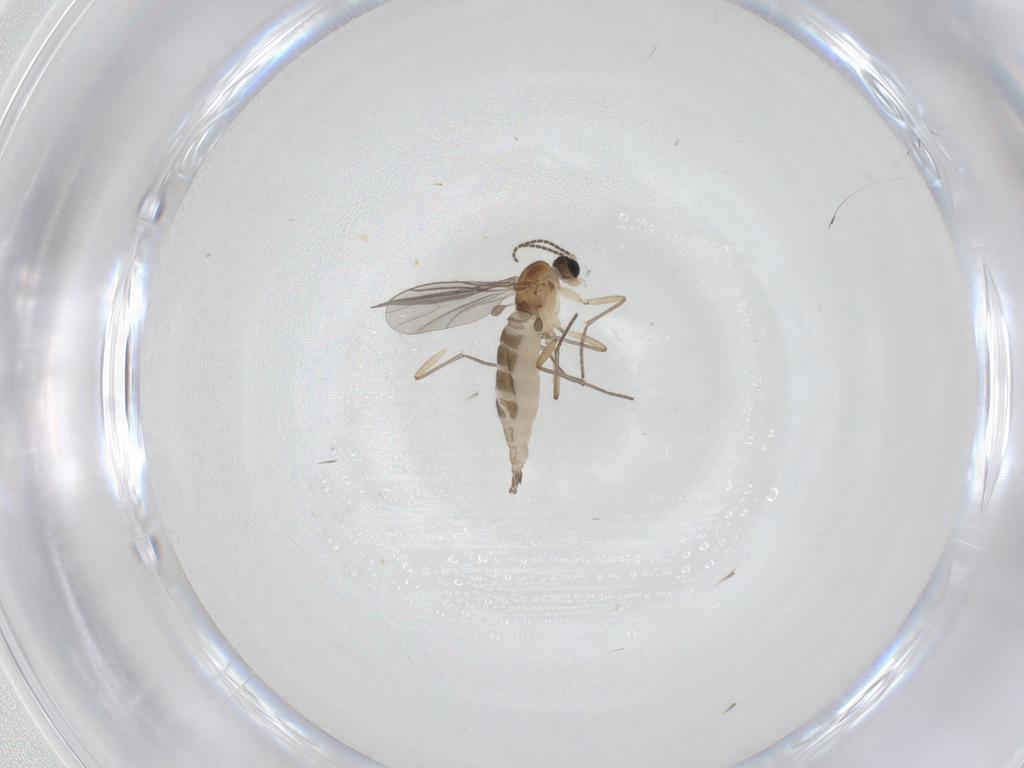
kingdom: Animalia
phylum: Arthropoda
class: Insecta
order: Diptera
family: Sciaridae
